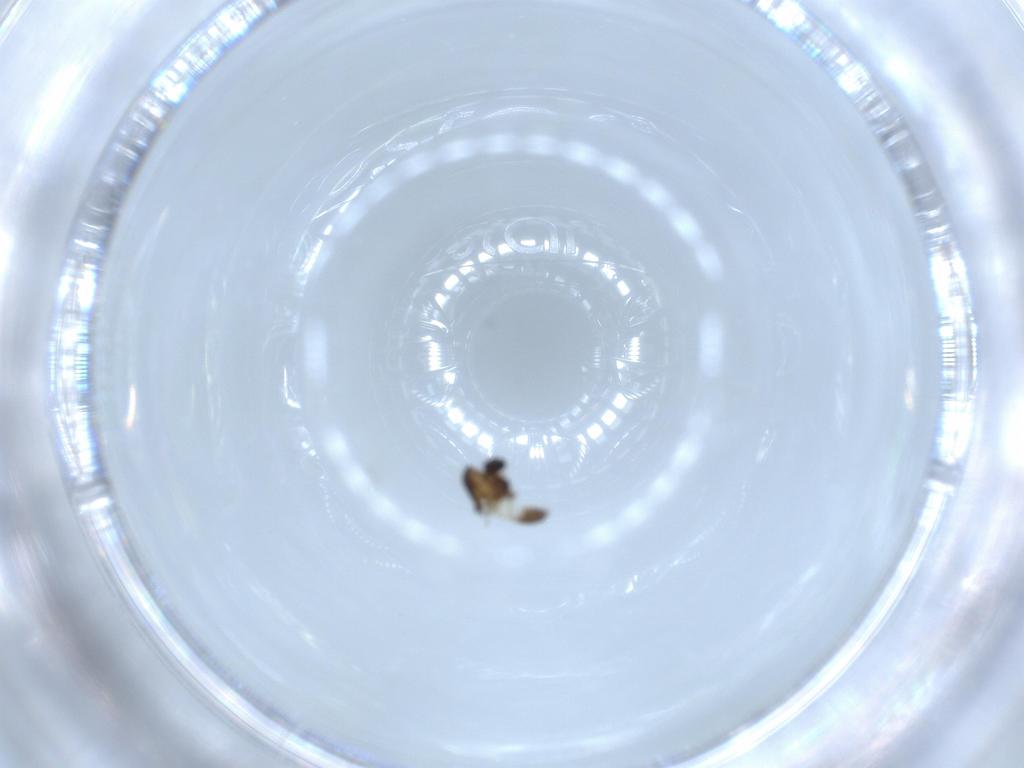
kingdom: Animalia
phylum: Arthropoda
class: Insecta
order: Diptera
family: Chironomidae
